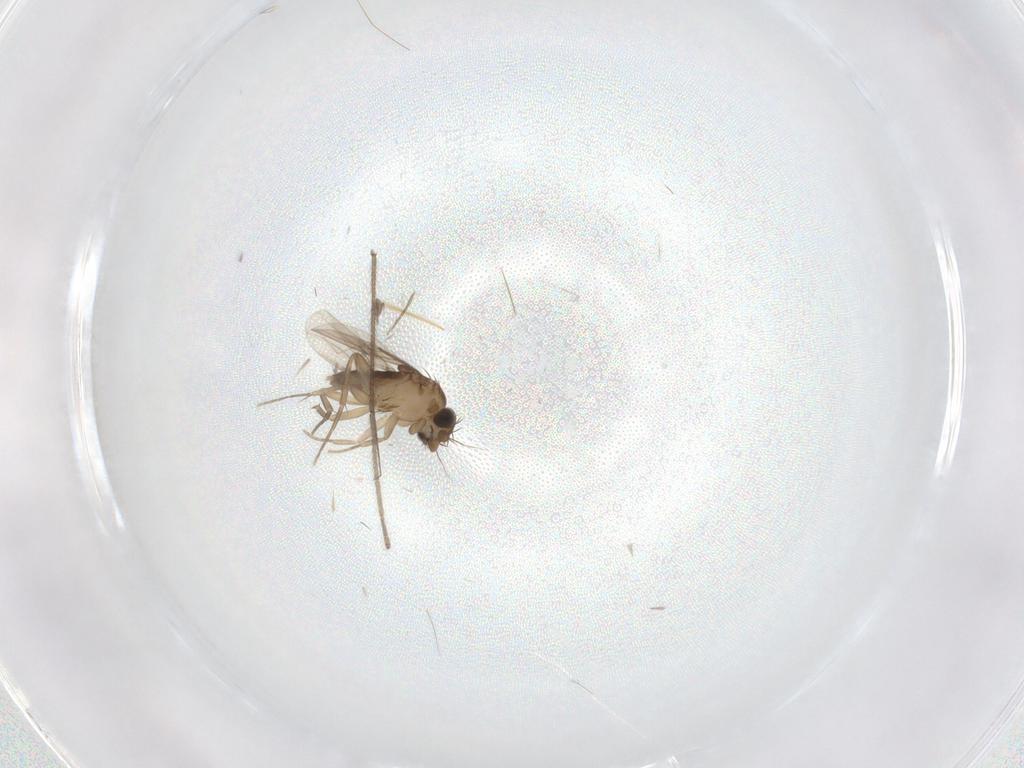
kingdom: Animalia
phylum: Arthropoda
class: Insecta
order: Diptera
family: Limoniidae
